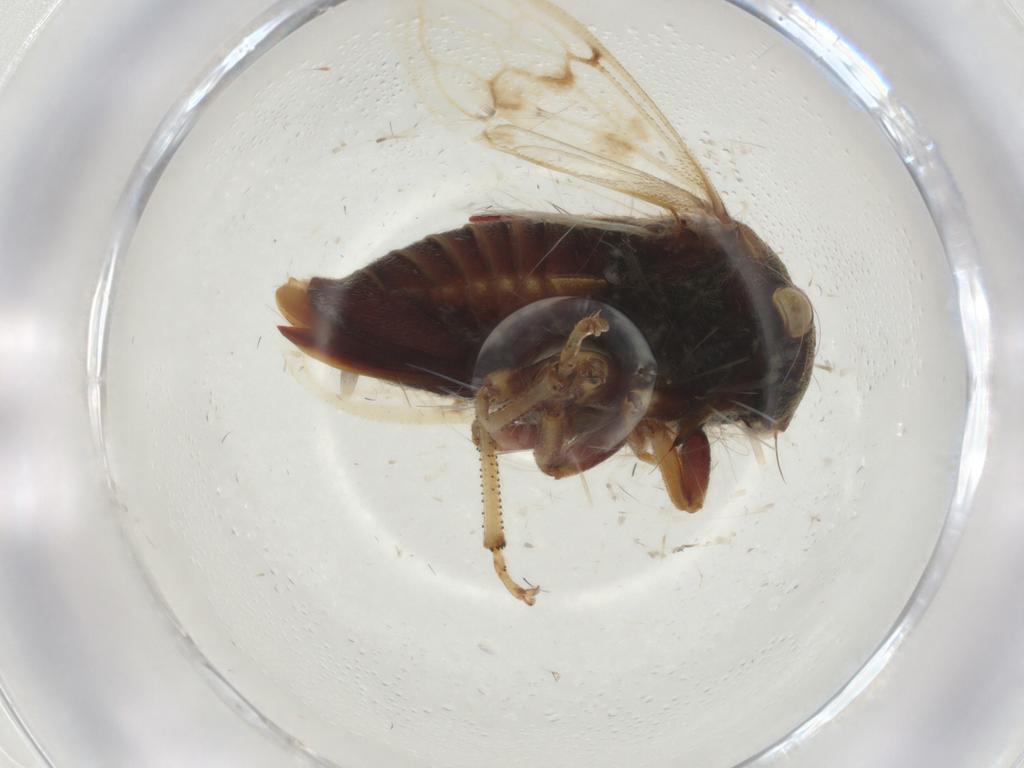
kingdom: Animalia
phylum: Arthropoda
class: Insecta
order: Hemiptera
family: Membracidae
